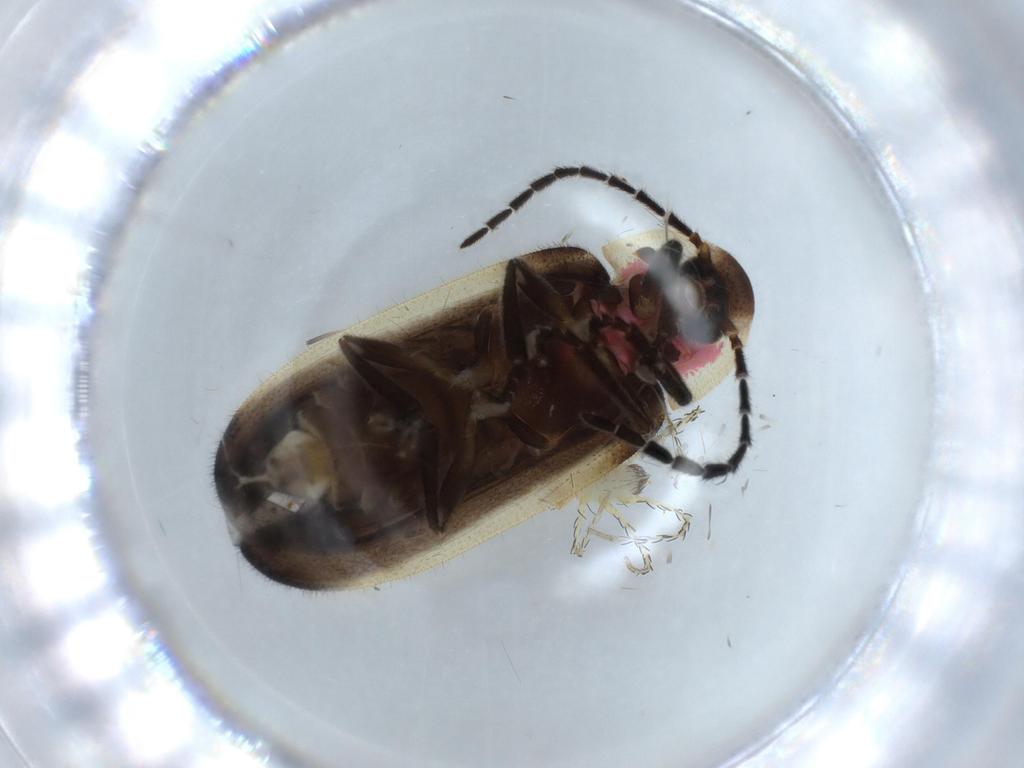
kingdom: Animalia
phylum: Arthropoda
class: Arachnida
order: Trombidiformes
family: Erythraeidae
